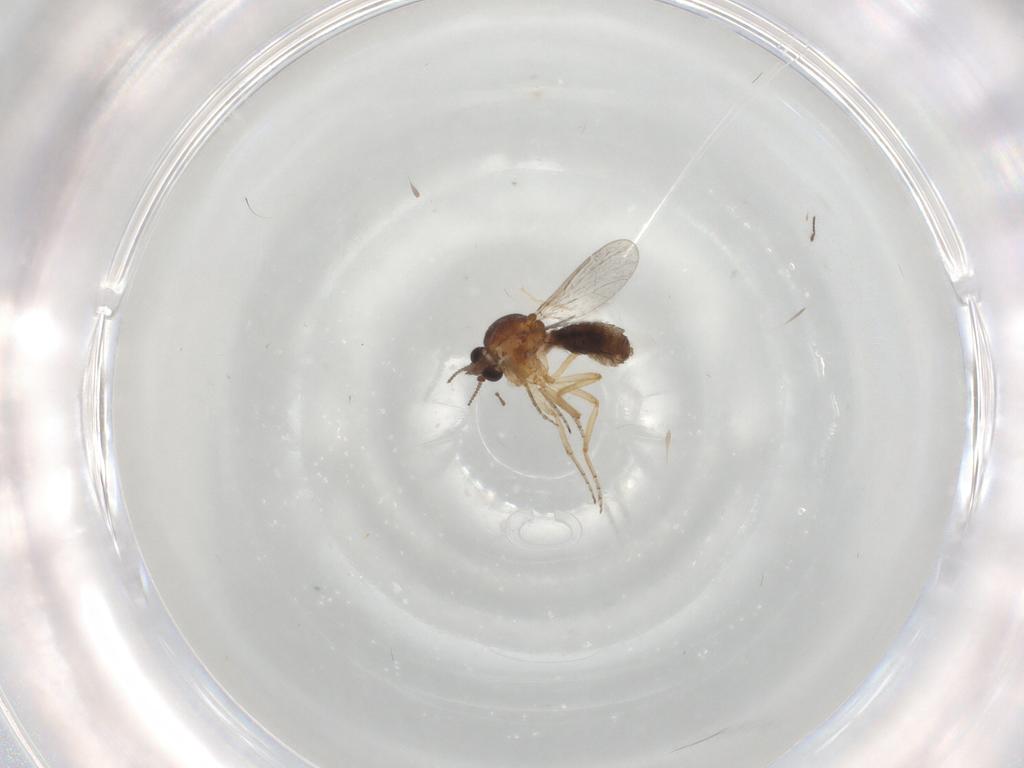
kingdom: Animalia
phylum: Arthropoda
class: Insecta
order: Diptera
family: Ceratopogonidae
